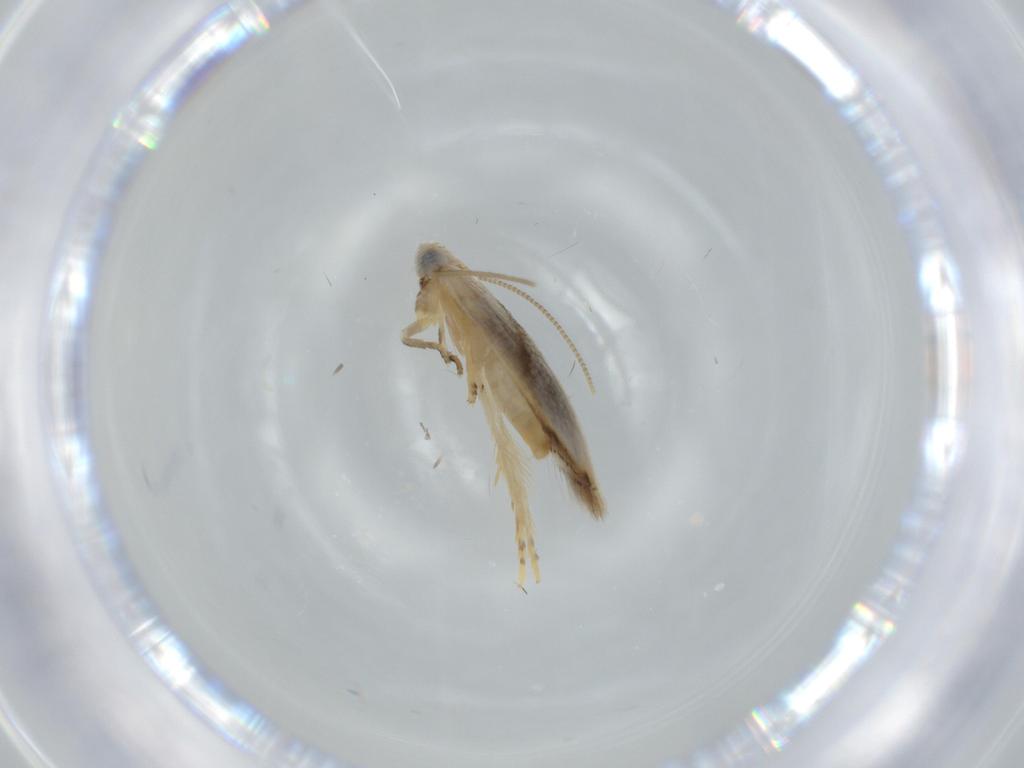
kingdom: Animalia
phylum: Arthropoda
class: Insecta
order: Lepidoptera
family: Opostegidae
